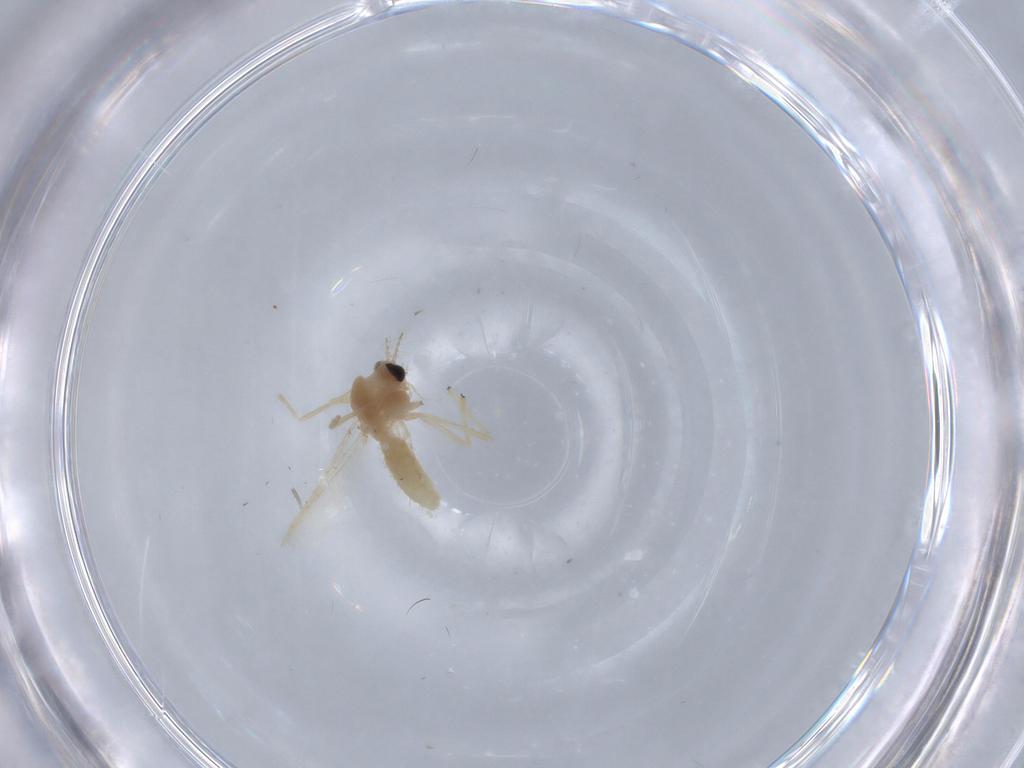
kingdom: Animalia
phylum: Arthropoda
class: Insecta
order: Diptera
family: Chironomidae
